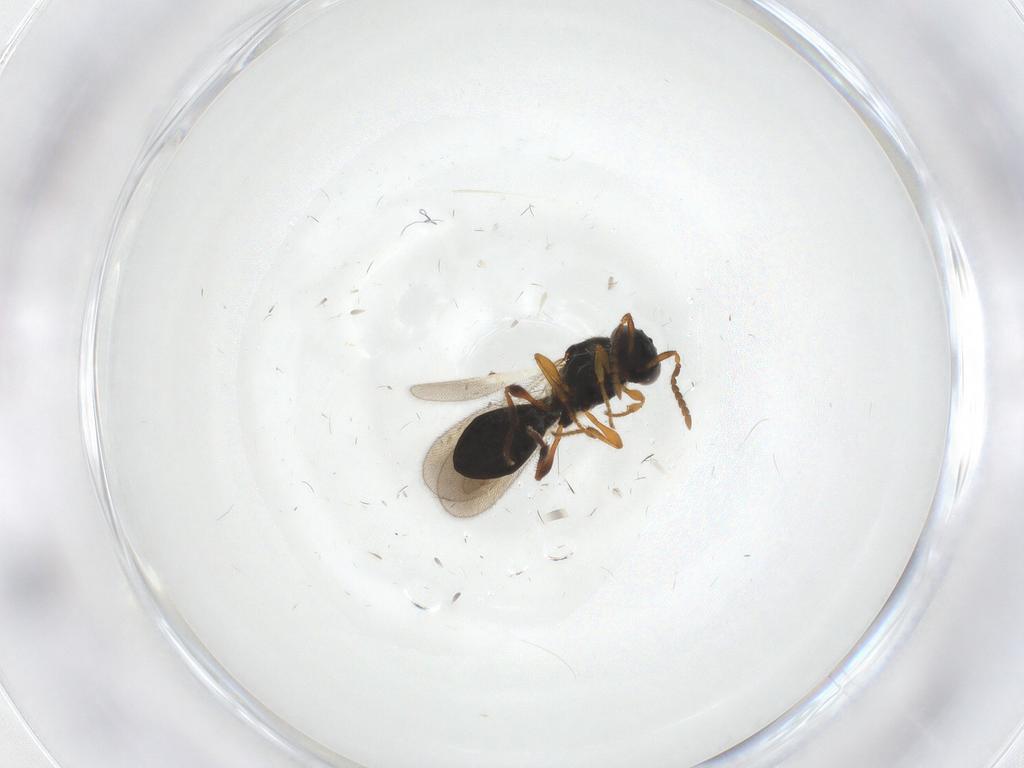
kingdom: Animalia
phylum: Arthropoda
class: Insecta
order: Hymenoptera
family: Platygastridae
